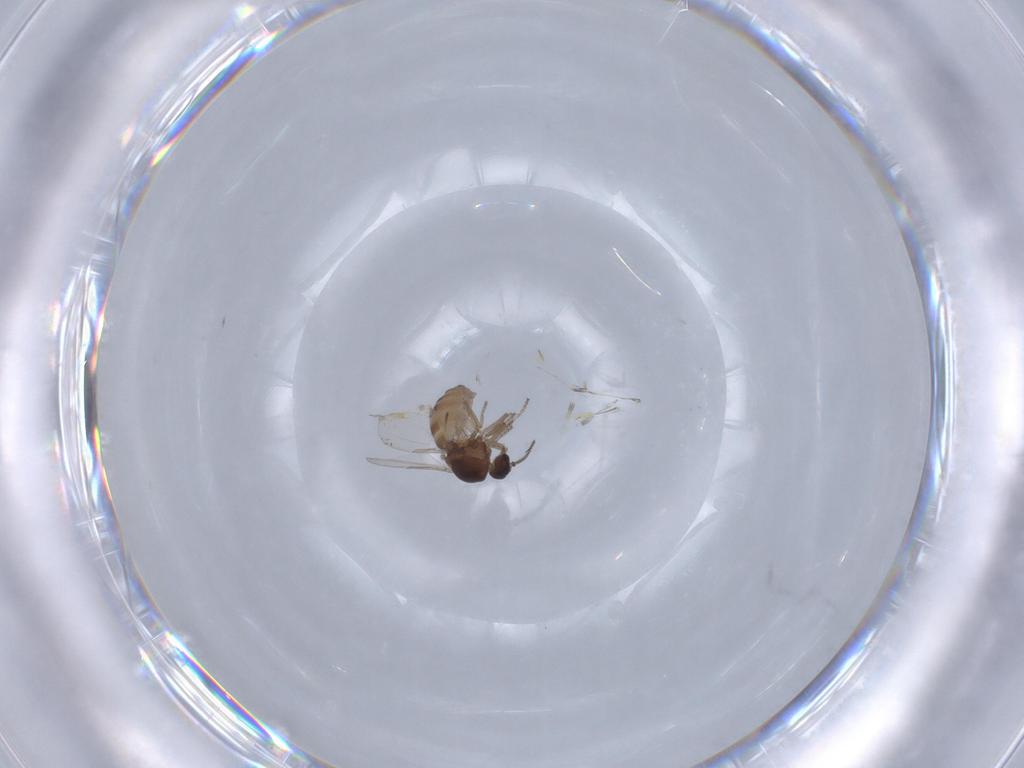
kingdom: Animalia
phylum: Arthropoda
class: Insecta
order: Diptera
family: Ceratopogonidae
